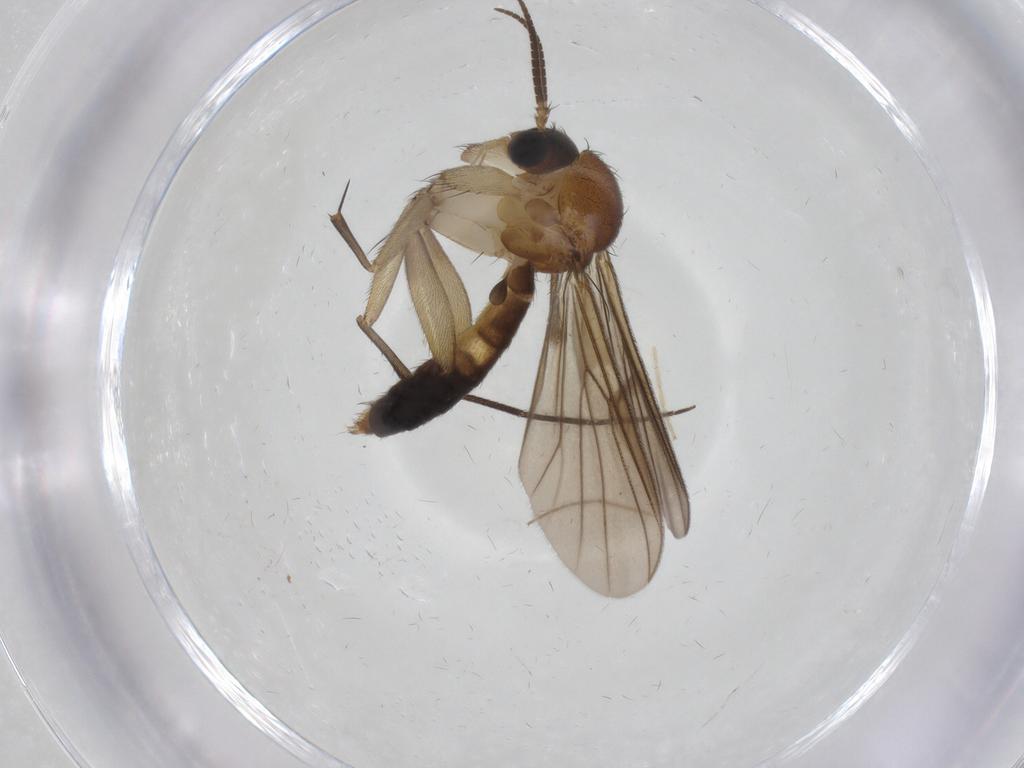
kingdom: Animalia
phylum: Arthropoda
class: Insecta
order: Diptera
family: Mycetophilidae
